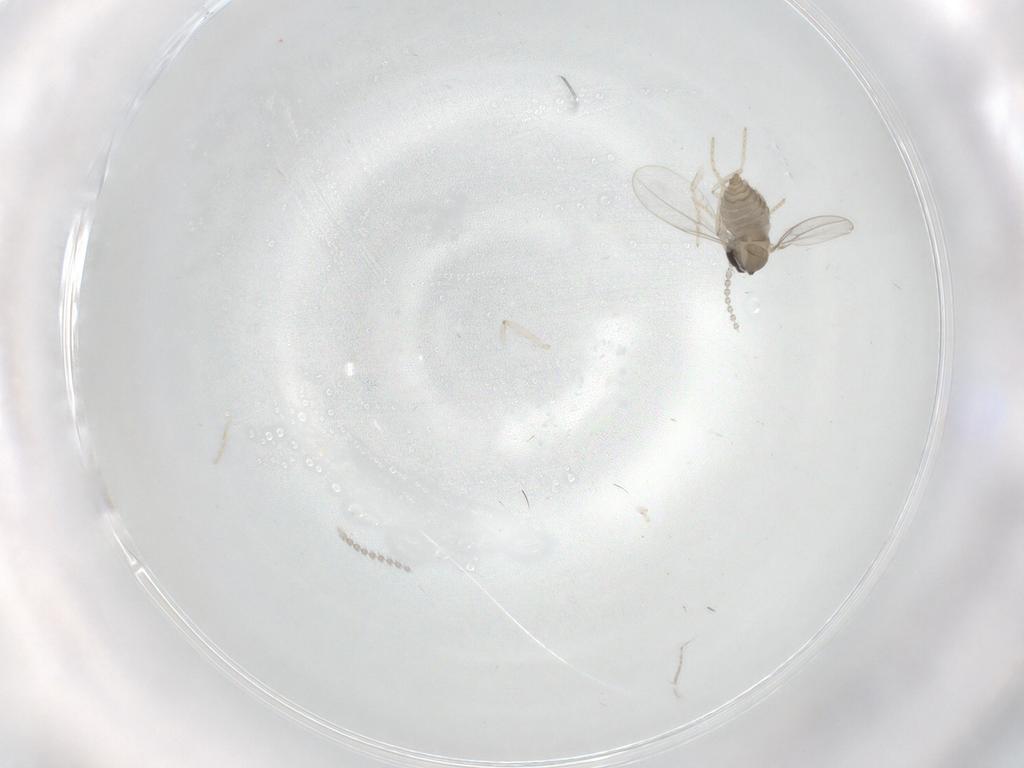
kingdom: Animalia
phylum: Arthropoda
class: Insecta
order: Diptera
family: Cecidomyiidae
